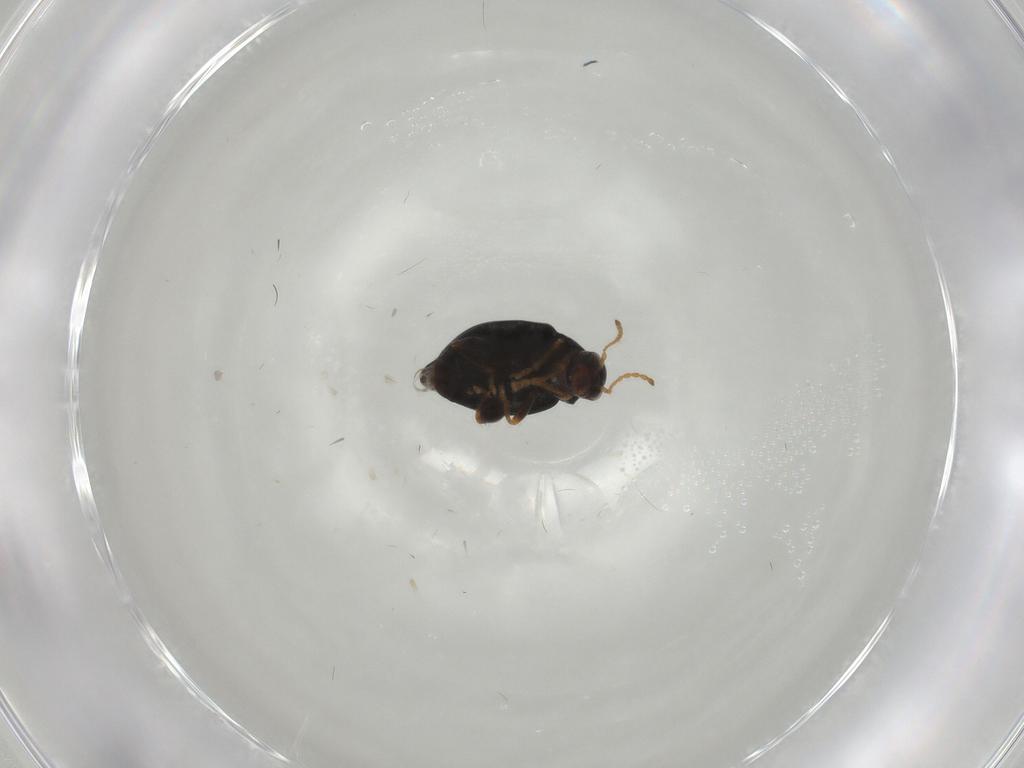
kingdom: Animalia
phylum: Arthropoda
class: Insecta
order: Coleoptera
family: Chrysomelidae
